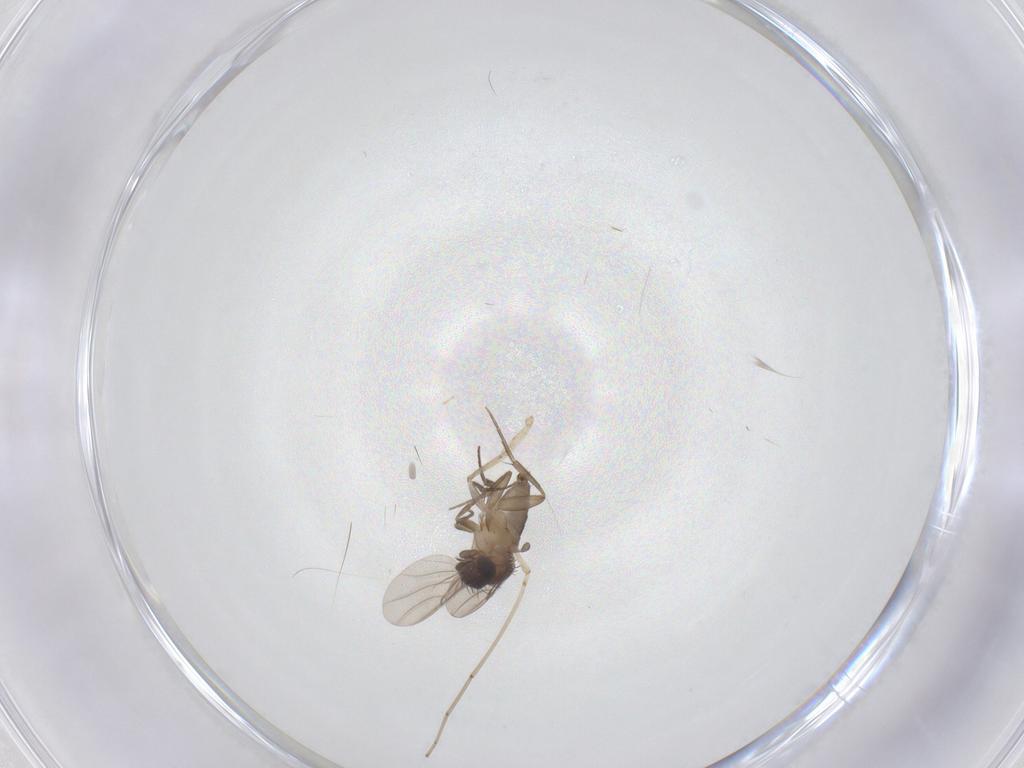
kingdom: Animalia
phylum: Arthropoda
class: Insecta
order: Diptera
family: Phoridae
